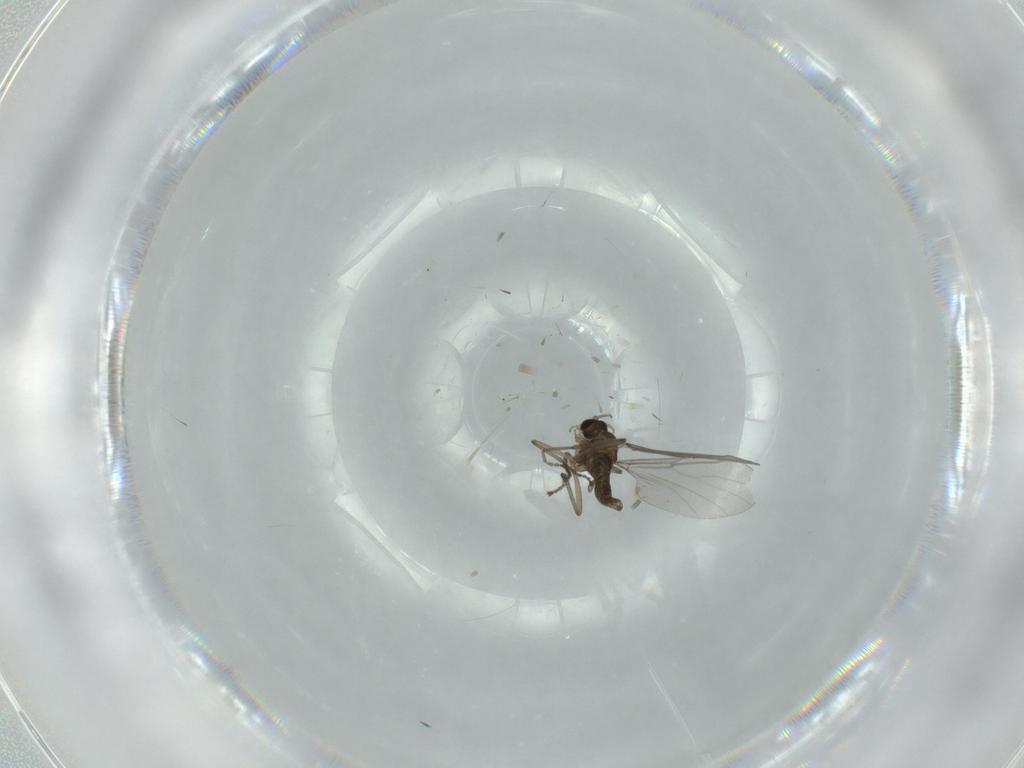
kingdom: Animalia
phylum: Arthropoda
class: Insecta
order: Diptera
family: Cecidomyiidae
